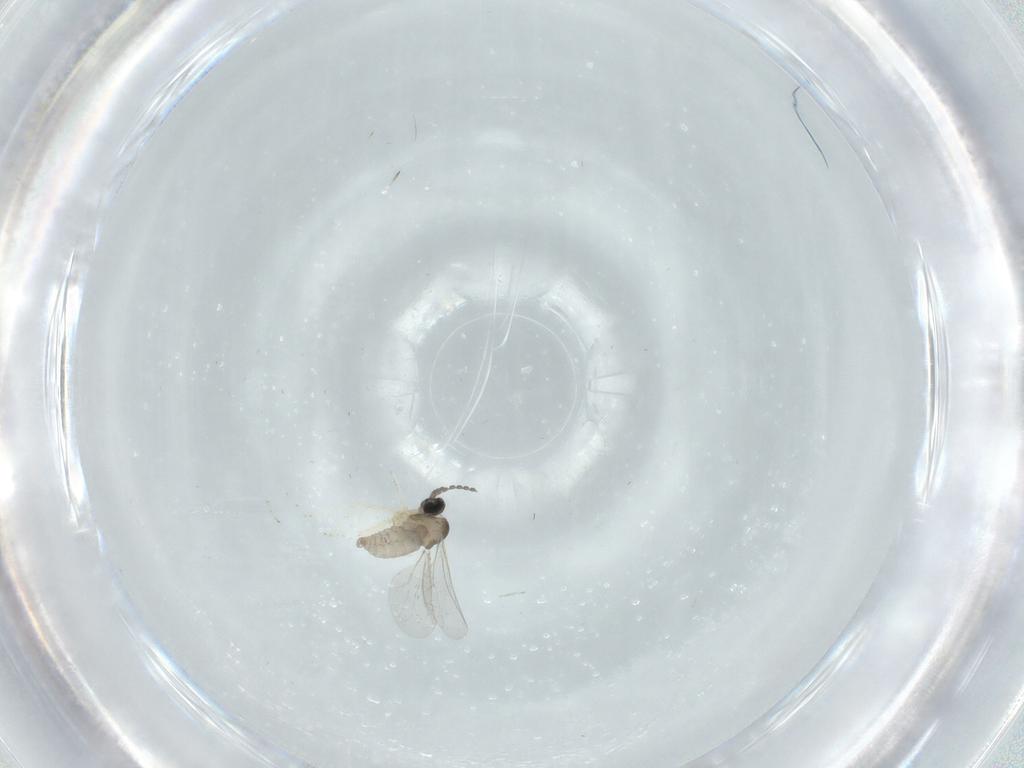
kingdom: Animalia
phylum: Arthropoda
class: Insecta
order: Diptera
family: Cecidomyiidae
